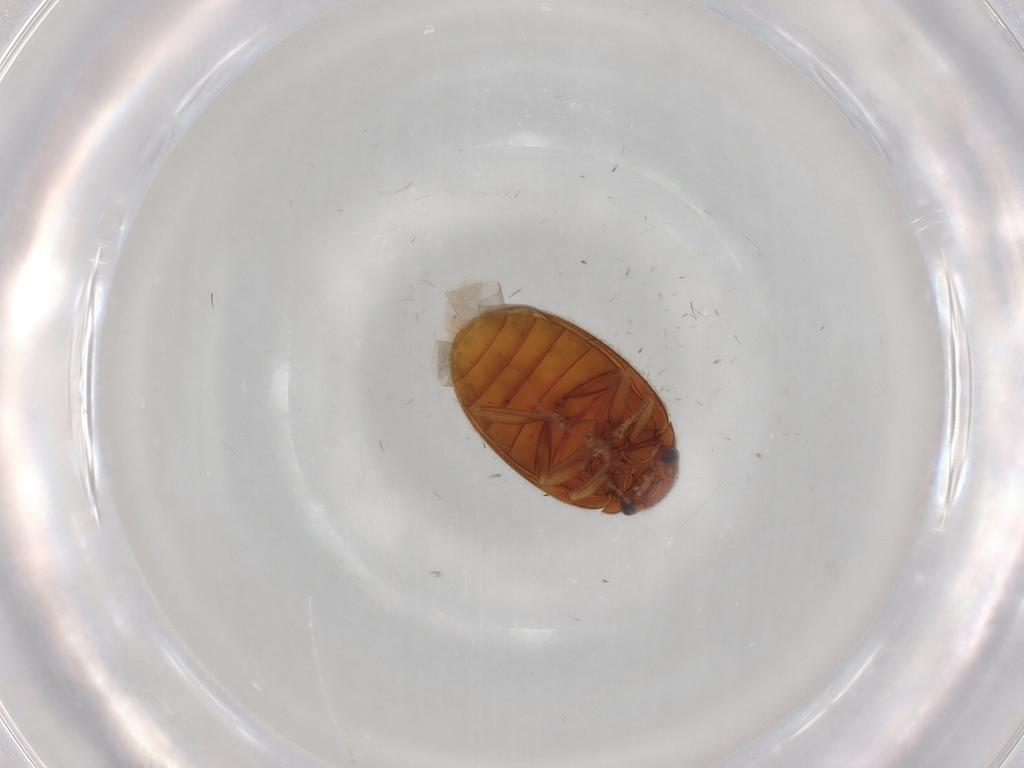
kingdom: Animalia
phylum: Arthropoda
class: Insecta
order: Coleoptera
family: Scirtidae
